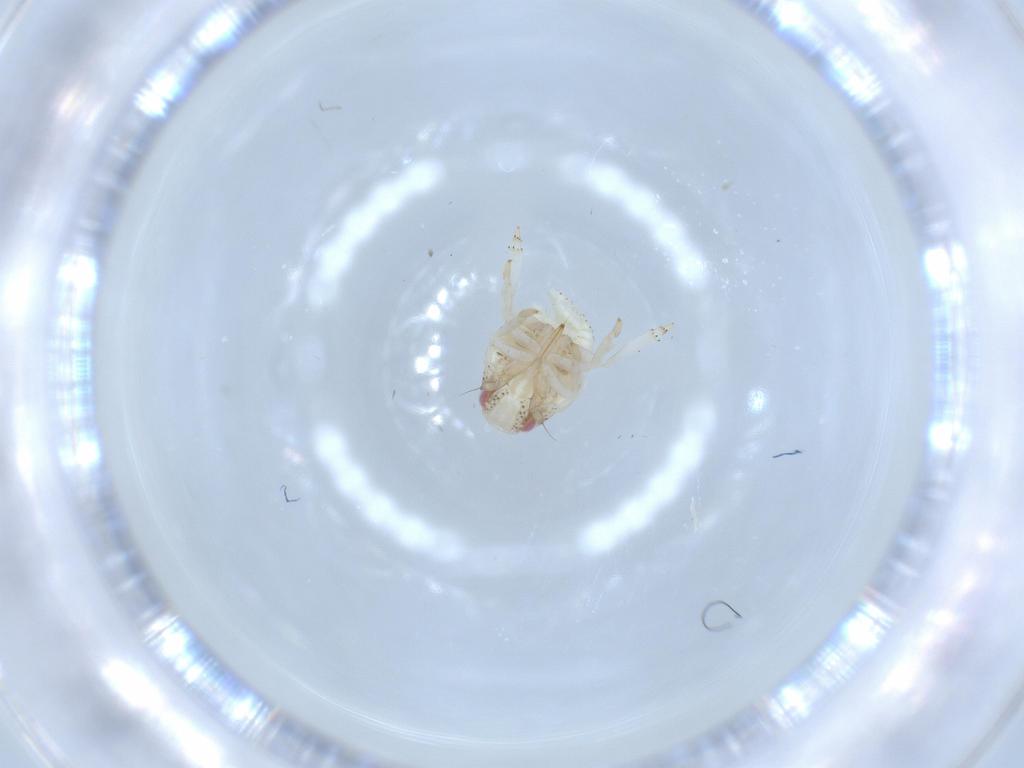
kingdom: Animalia
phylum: Arthropoda
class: Insecta
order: Hemiptera
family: Acanaloniidae
